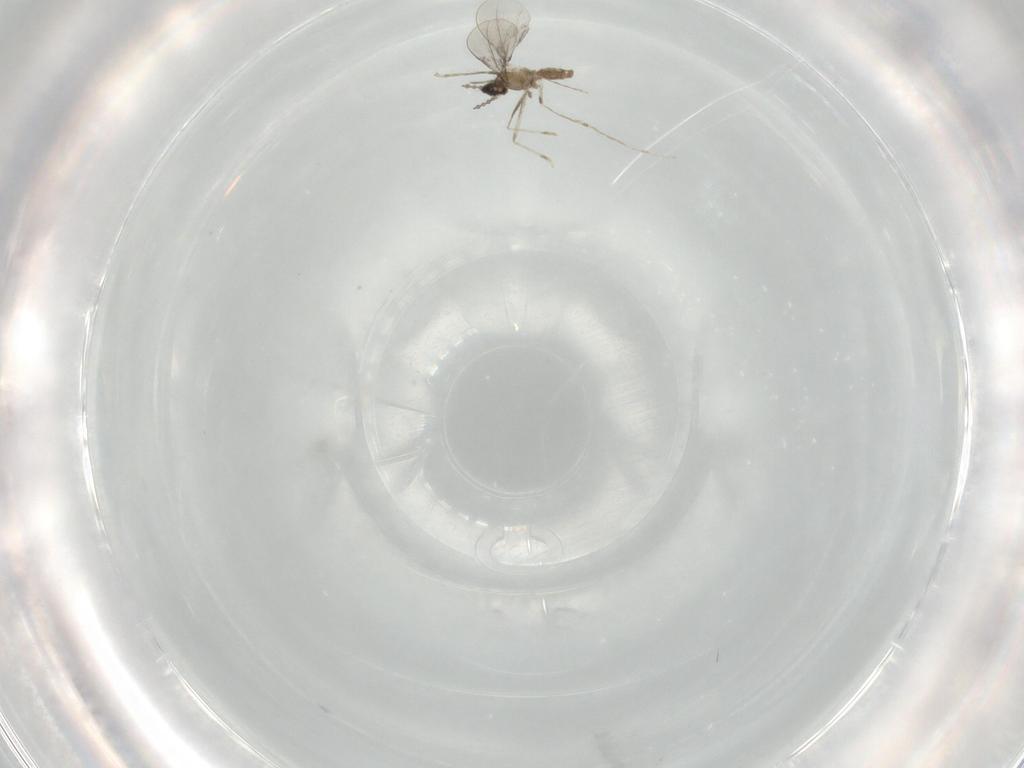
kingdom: Animalia
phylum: Arthropoda
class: Insecta
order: Diptera
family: Cecidomyiidae
